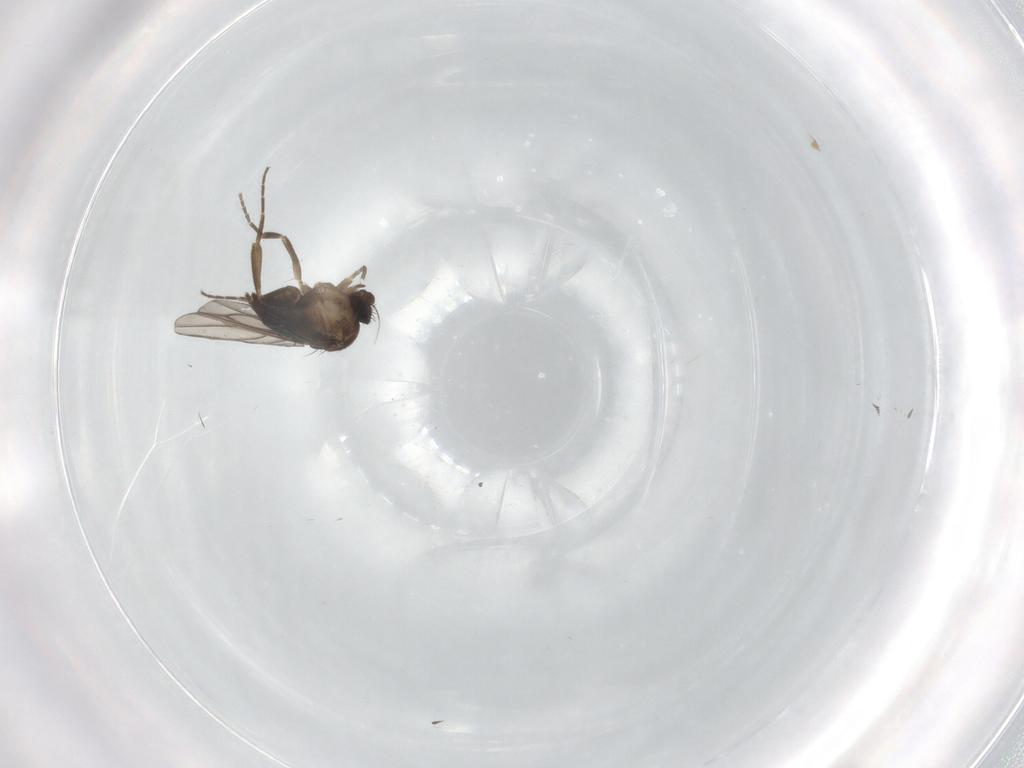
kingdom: Animalia
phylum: Arthropoda
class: Insecta
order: Diptera
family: Phoridae
